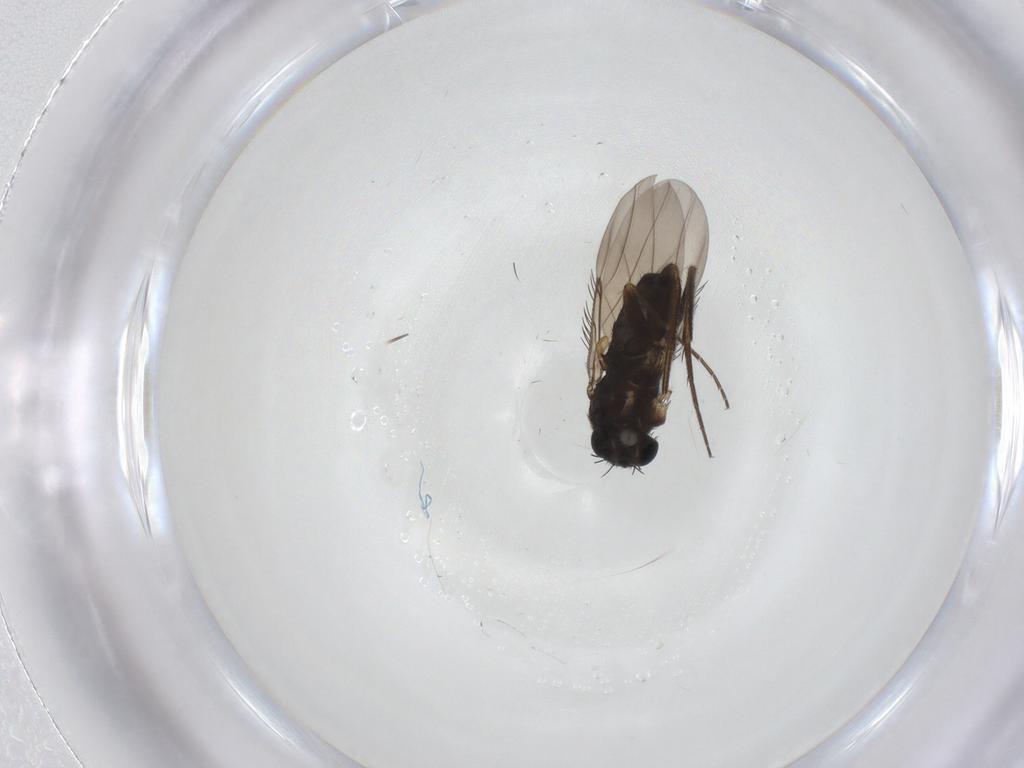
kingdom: Animalia
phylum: Arthropoda
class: Insecta
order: Diptera
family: Phoridae
